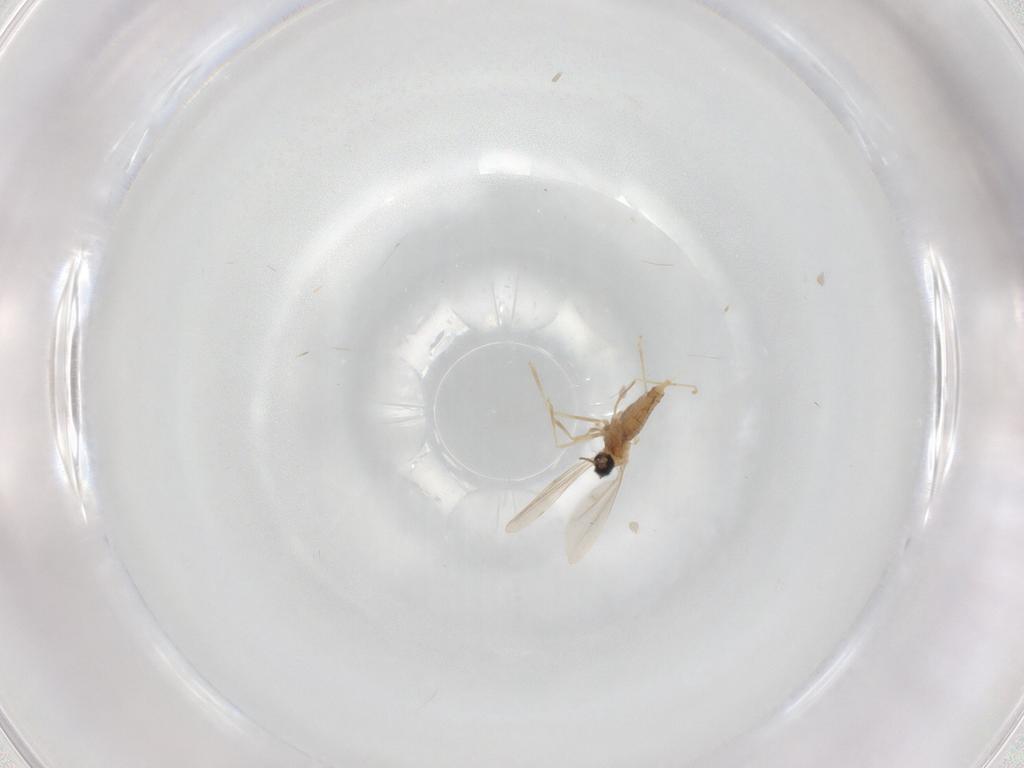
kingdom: Animalia
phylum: Arthropoda
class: Insecta
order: Diptera
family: Cecidomyiidae
